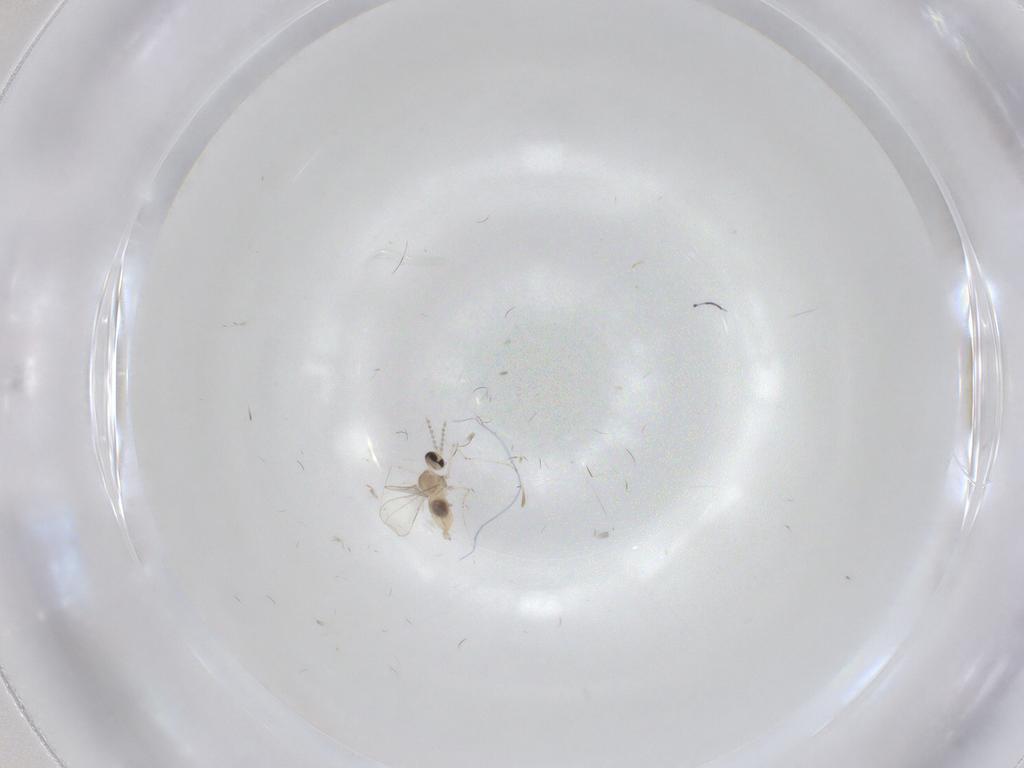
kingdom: Animalia
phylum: Arthropoda
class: Insecta
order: Diptera
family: Cecidomyiidae
